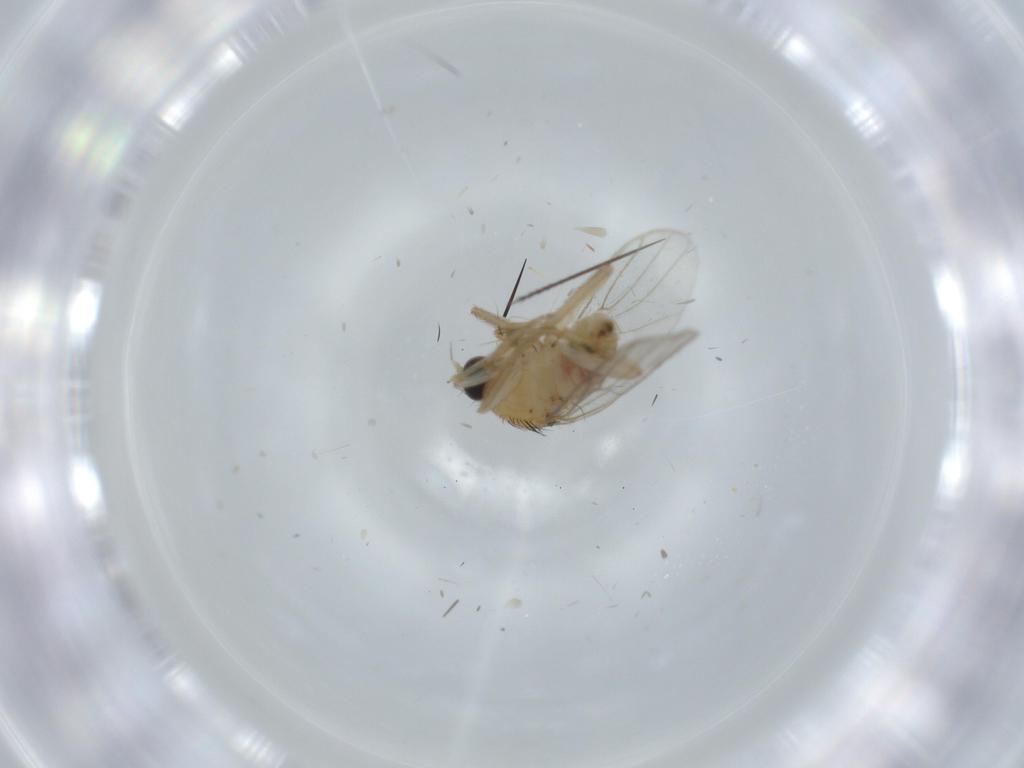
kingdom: Animalia
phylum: Arthropoda
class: Insecta
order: Diptera
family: Hybotidae
